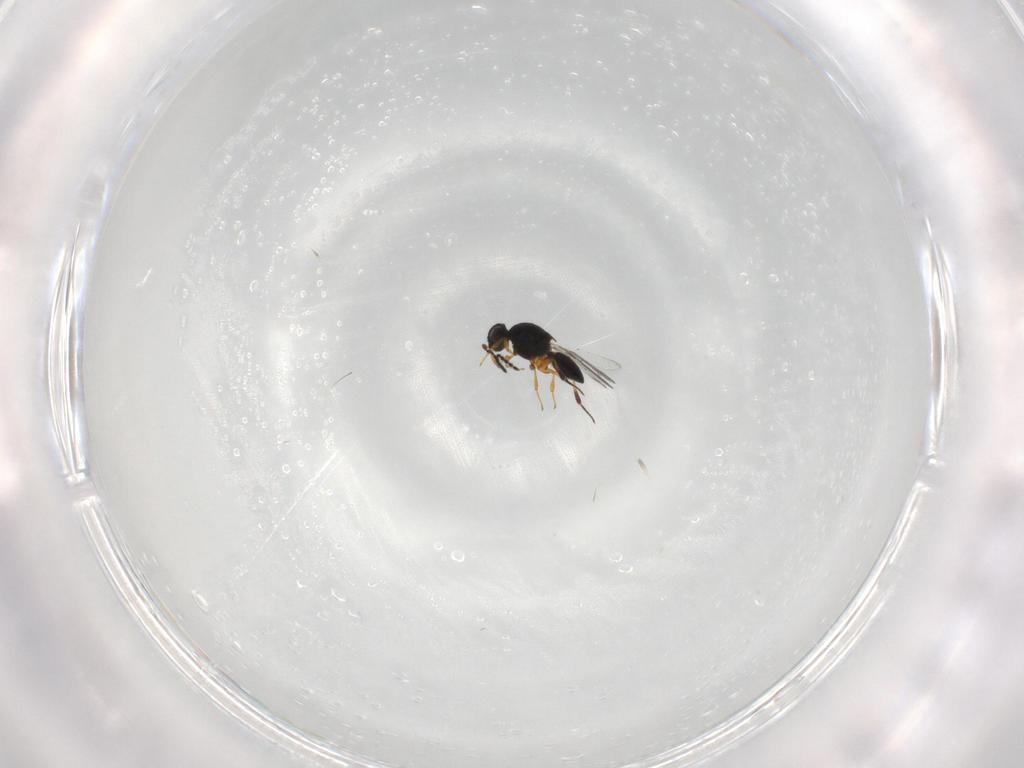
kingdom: Animalia
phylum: Arthropoda
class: Insecta
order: Hymenoptera
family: Platygastridae
